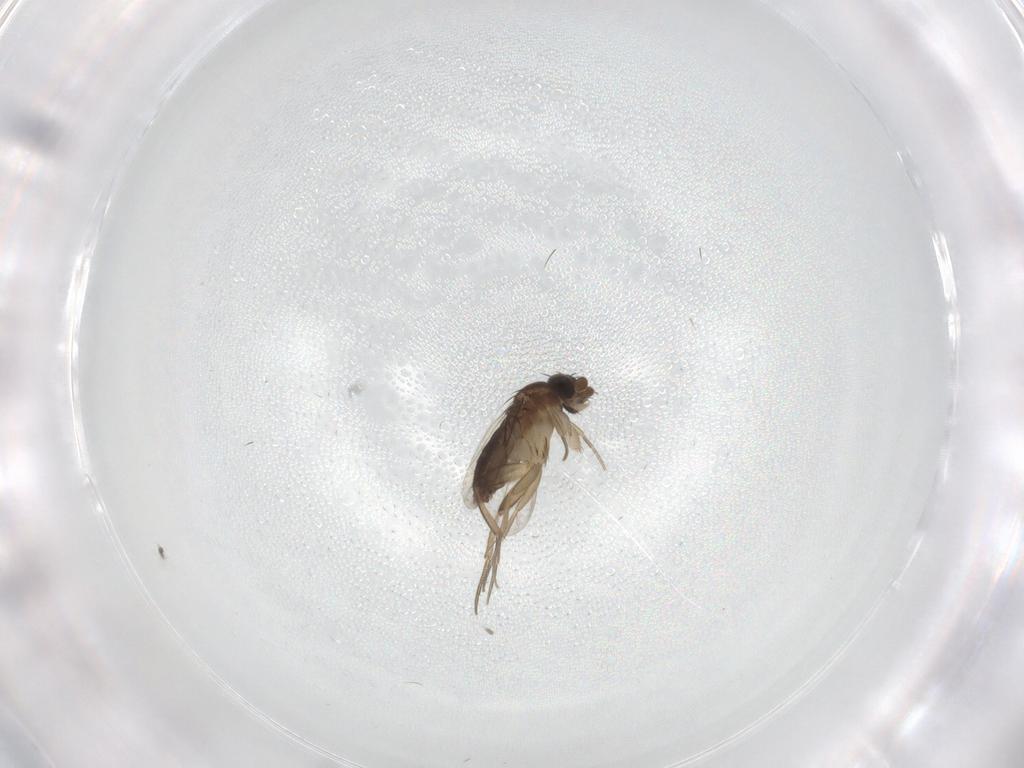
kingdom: Animalia
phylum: Arthropoda
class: Insecta
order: Diptera
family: Phoridae
